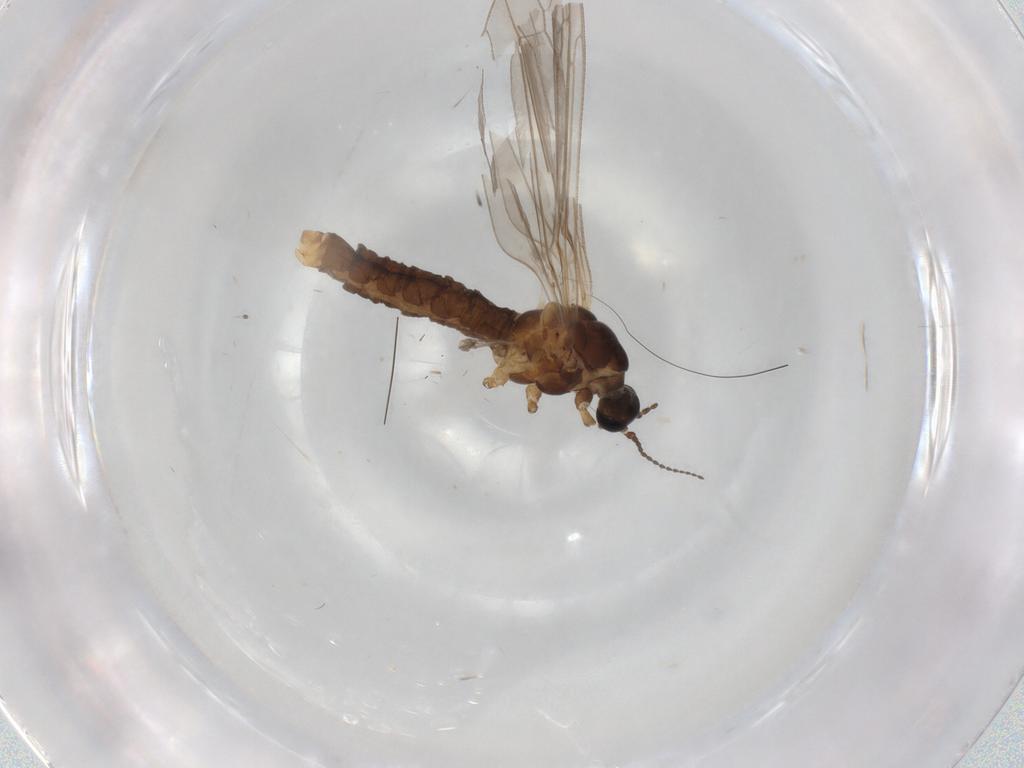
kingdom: Animalia
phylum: Arthropoda
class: Insecta
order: Diptera
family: Limoniidae
